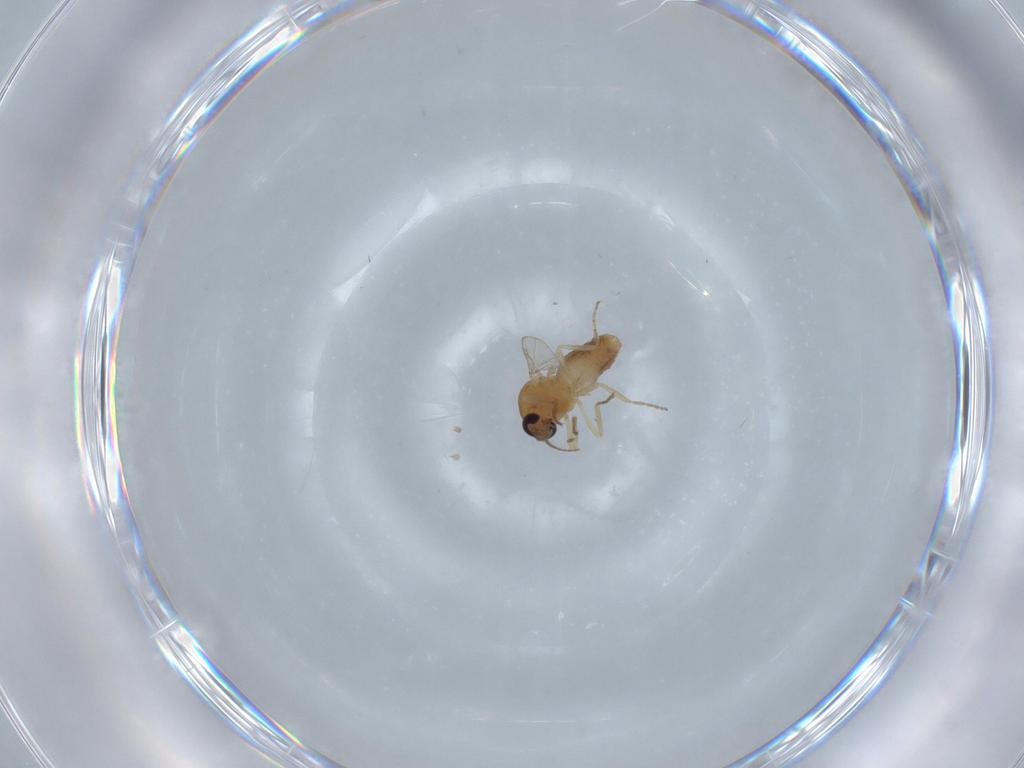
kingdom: Animalia
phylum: Arthropoda
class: Insecta
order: Diptera
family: Ceratopogonidae
